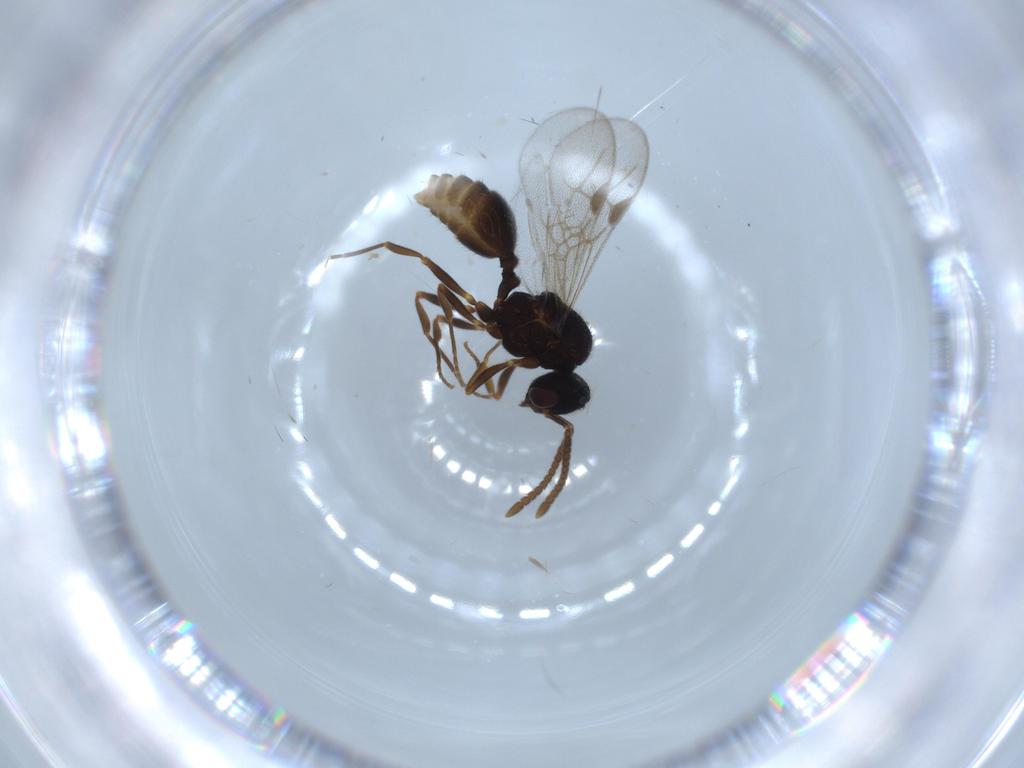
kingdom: Animalia
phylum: Arthropoda
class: Insecta
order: Hymenoptera
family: Formicidae
